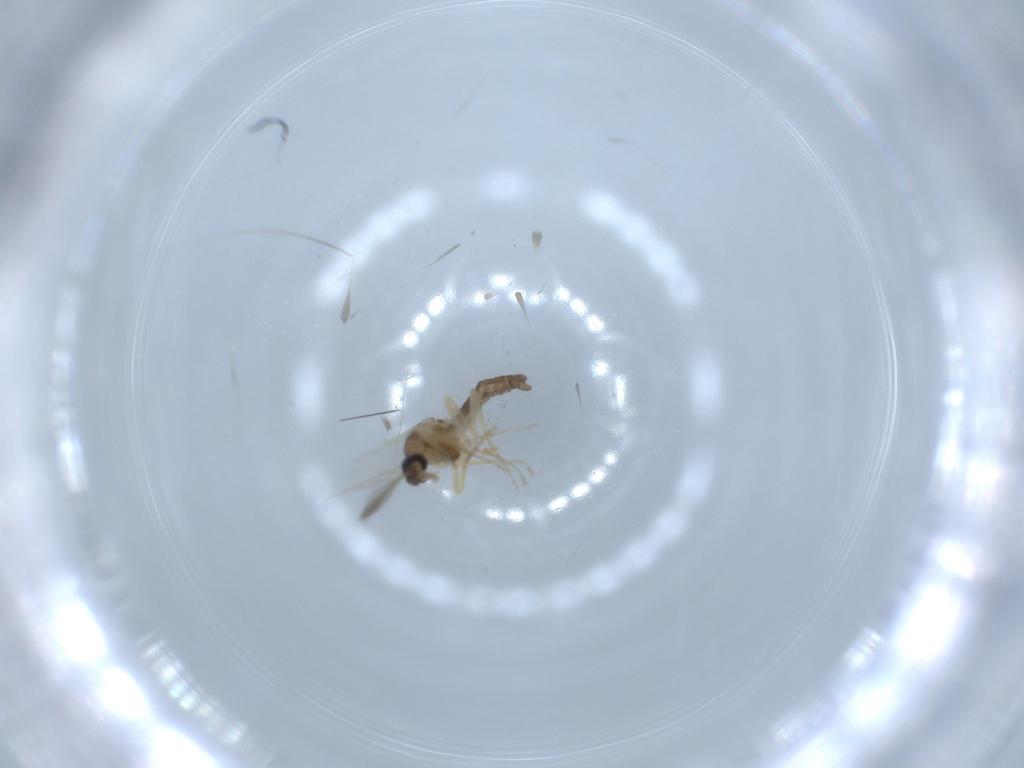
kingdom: Animalia
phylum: Arthropoda
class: Insecta
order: Diptera
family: Ceratopogonidae
